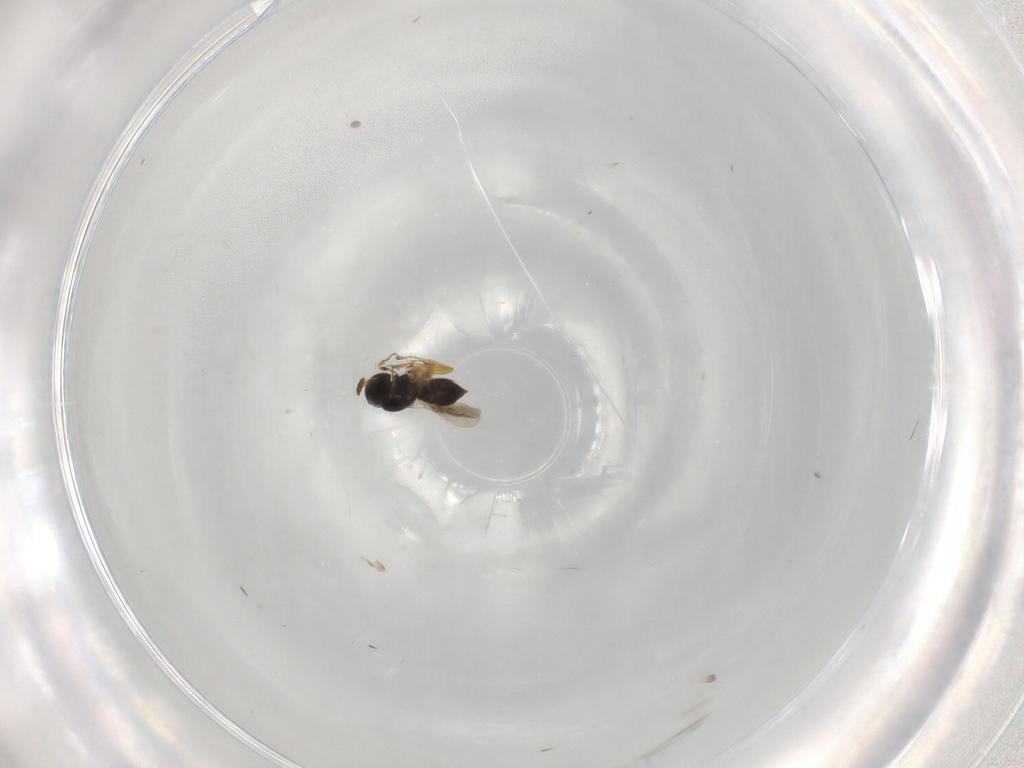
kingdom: Animalia
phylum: Arthropoda
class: Insecta
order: Hymenoptera
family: Scelionidae
